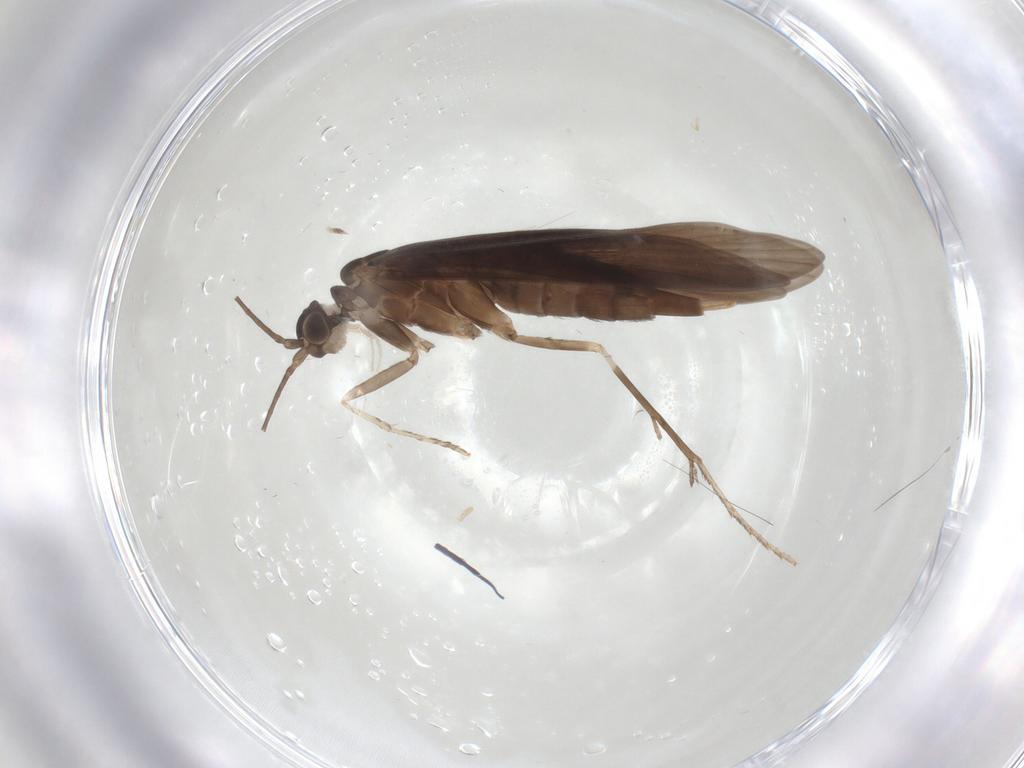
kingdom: Animalia
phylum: Arthropoda
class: Insecta
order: Trichoptera
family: Xiphocentronidae
